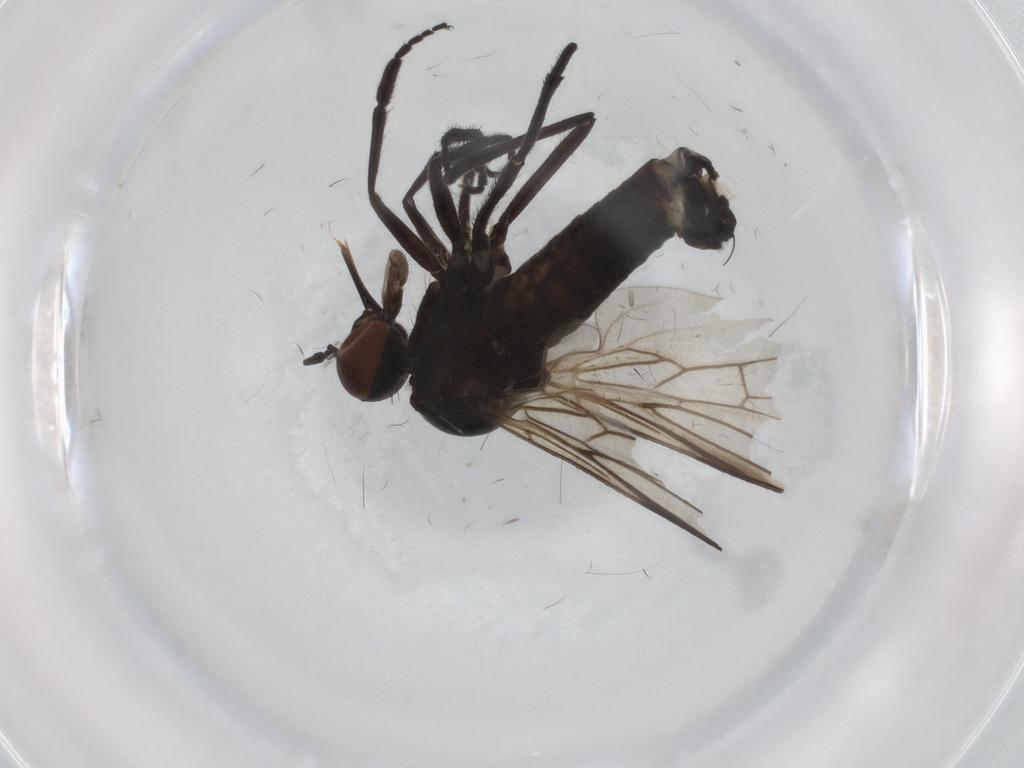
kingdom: Animalia
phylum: Arthropoda
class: Insecta
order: Diptera
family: Empididae
